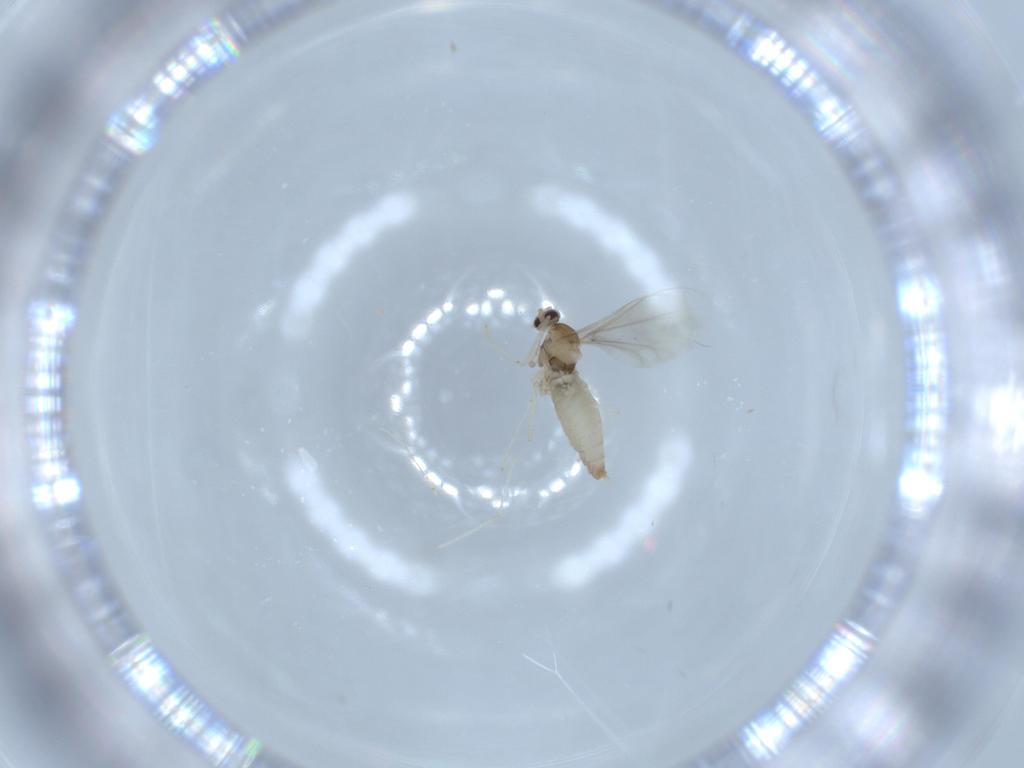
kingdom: Animalia
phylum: Arthropoda
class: Insecta
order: Diptera
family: Cecidomyiidae
